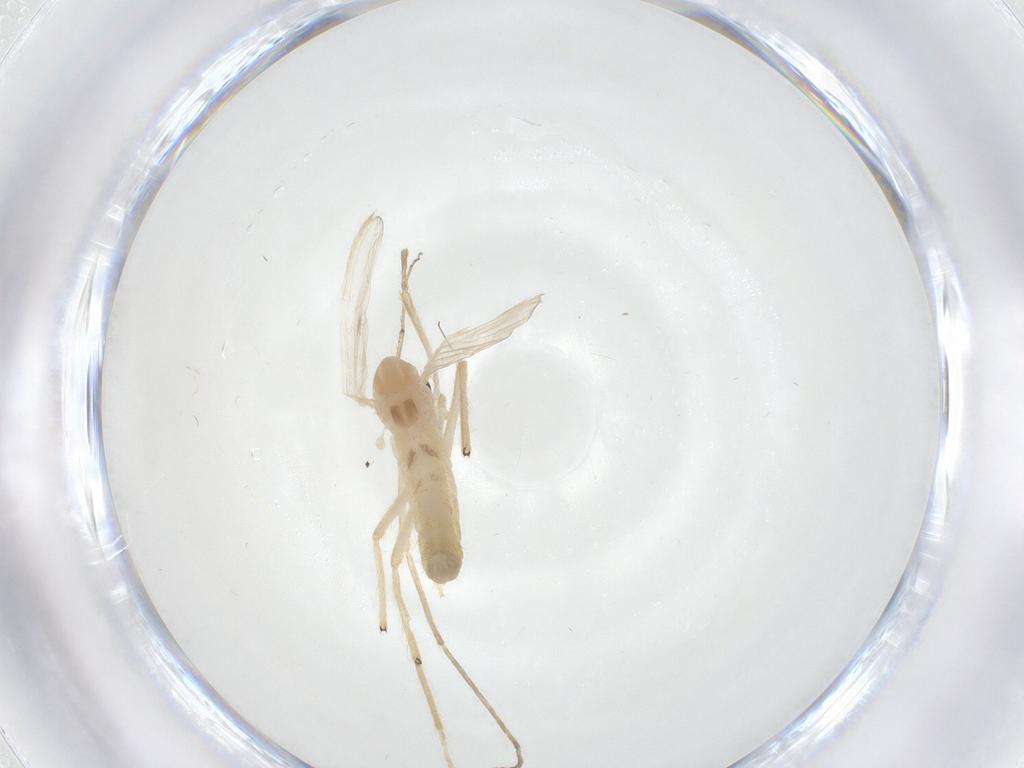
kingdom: Animalia
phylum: Arthropoda
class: Insecta
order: Diptera
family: Chironomidae
